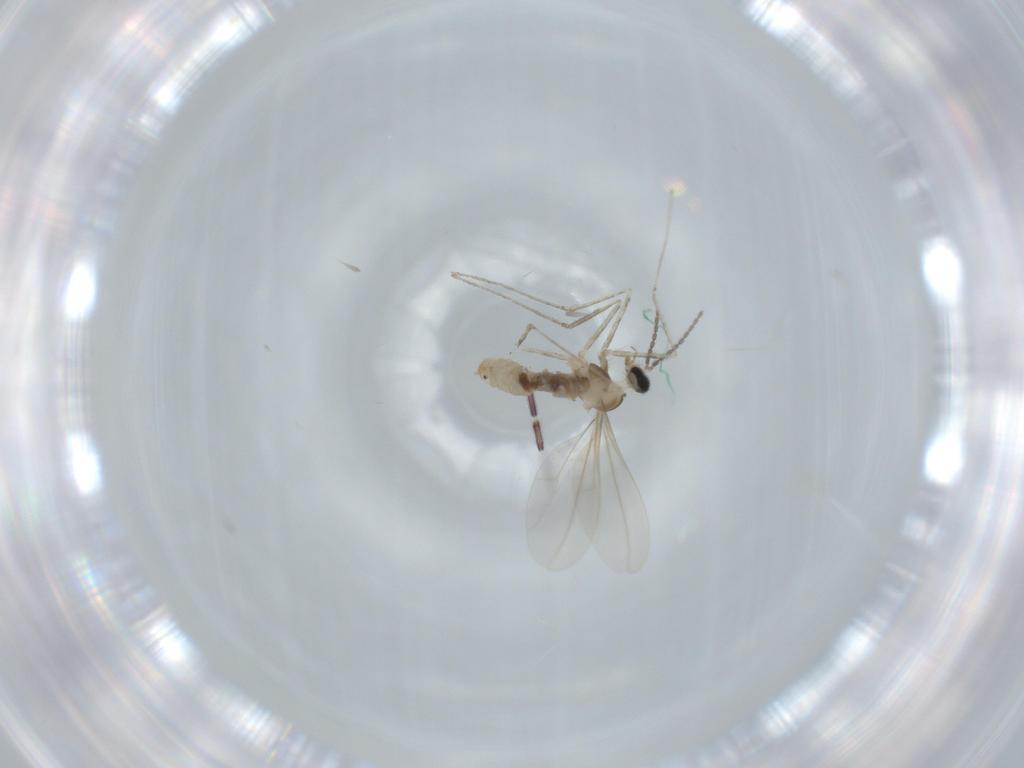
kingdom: Animalia
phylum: Arthropoda
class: Insecta
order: Diptera
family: Cecidomyiidae
